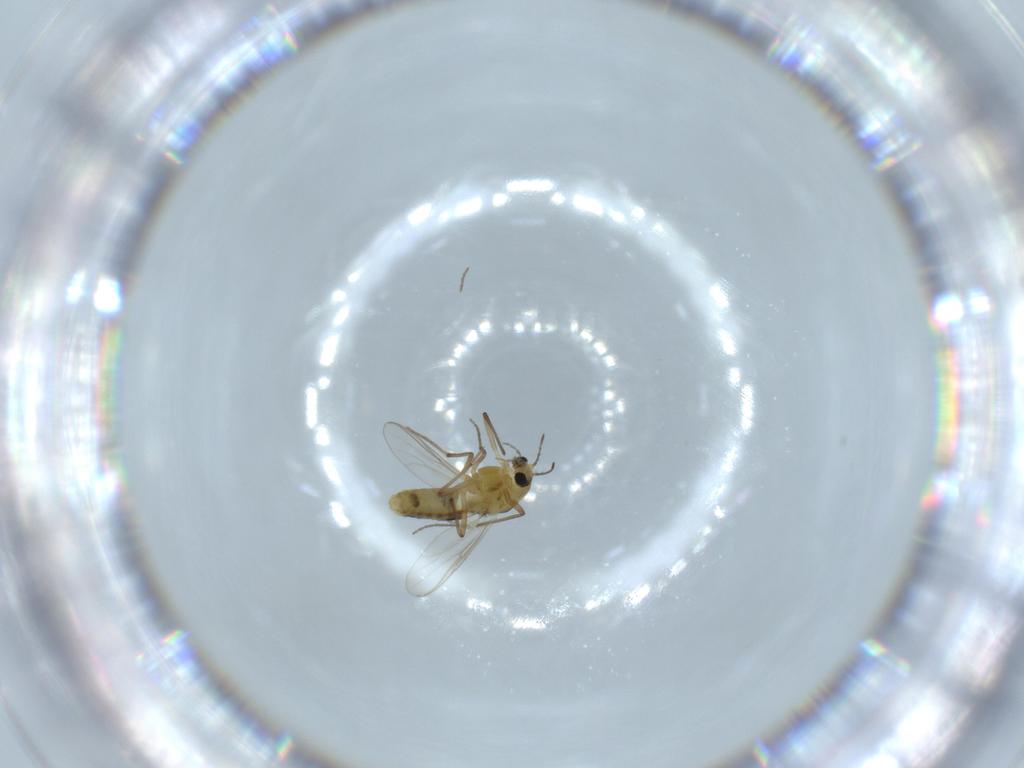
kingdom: Animalia
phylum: Arthropoda
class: Insecta
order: Diptera
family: Chironomidae
